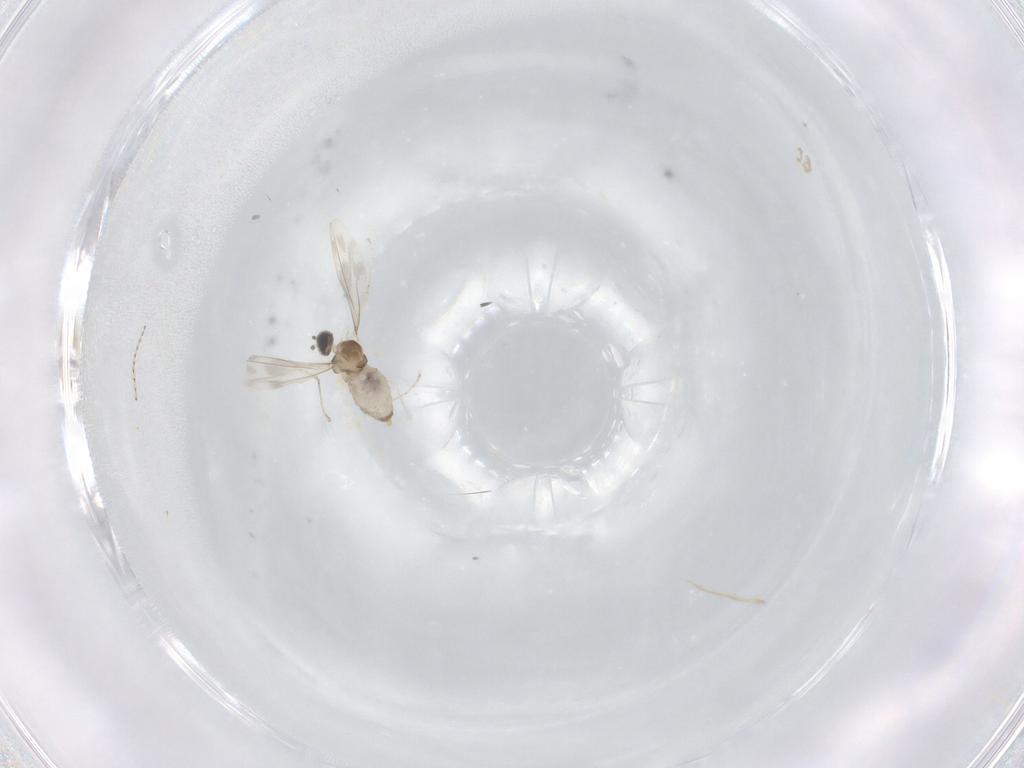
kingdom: Animalia
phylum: Arthropoda
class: Insecta
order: Diptera
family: Cecidomyiidae
